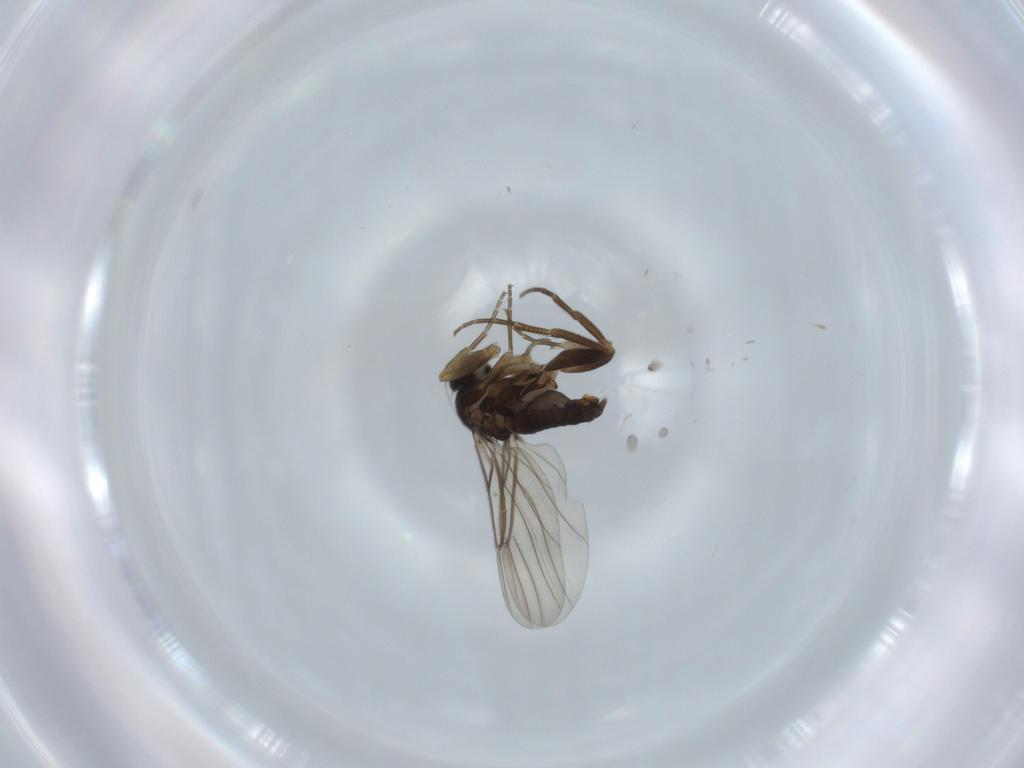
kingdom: Animalia
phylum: Arthropoda
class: Insecta
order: Diptera
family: Phoridae
